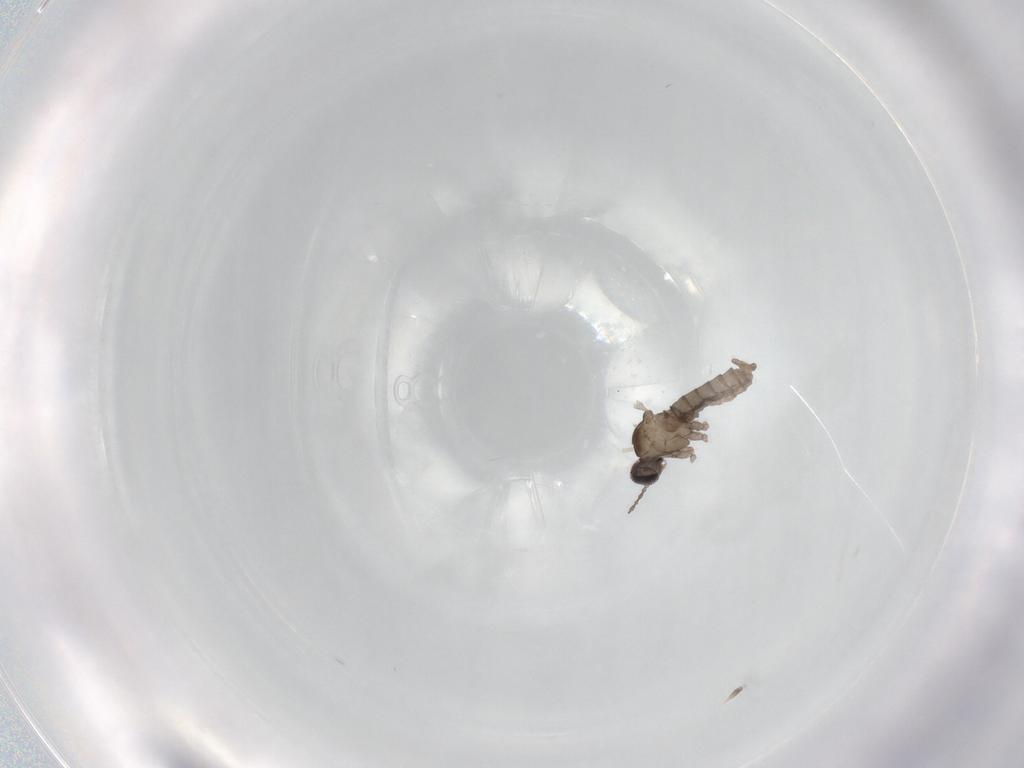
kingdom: Animalia
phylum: Arthropoda
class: Insecta
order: Diptera
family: Cecidomyiidae
